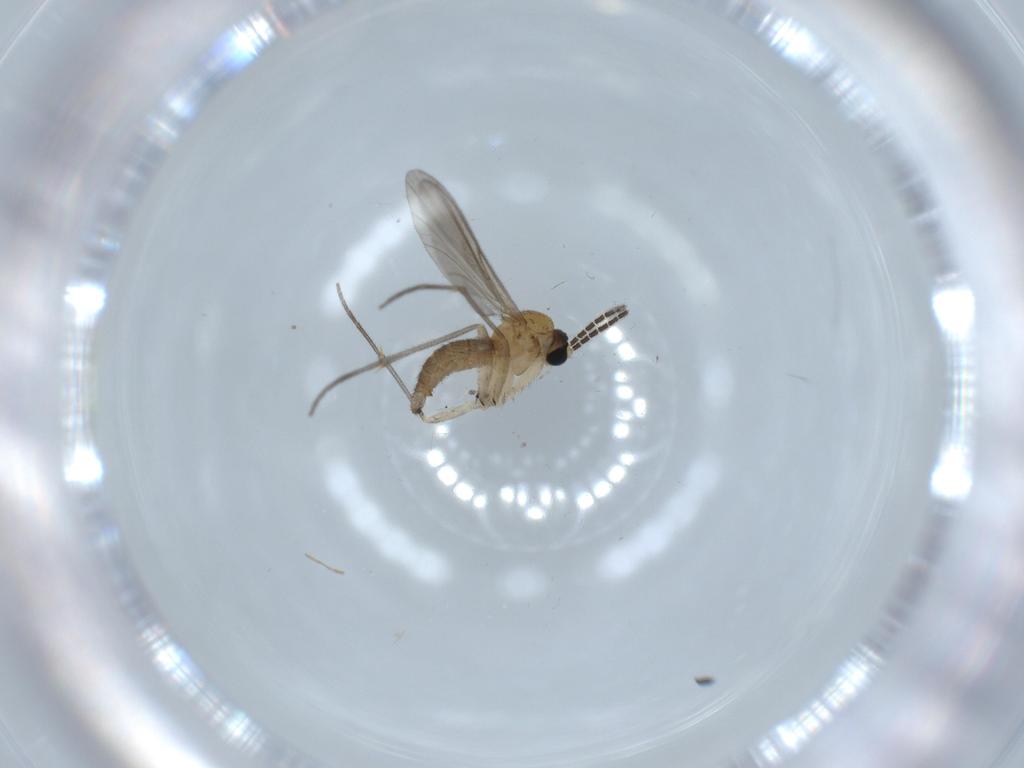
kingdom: Animalia
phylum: Arthropoda
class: Insecta
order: Diptera
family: Sciaridae
